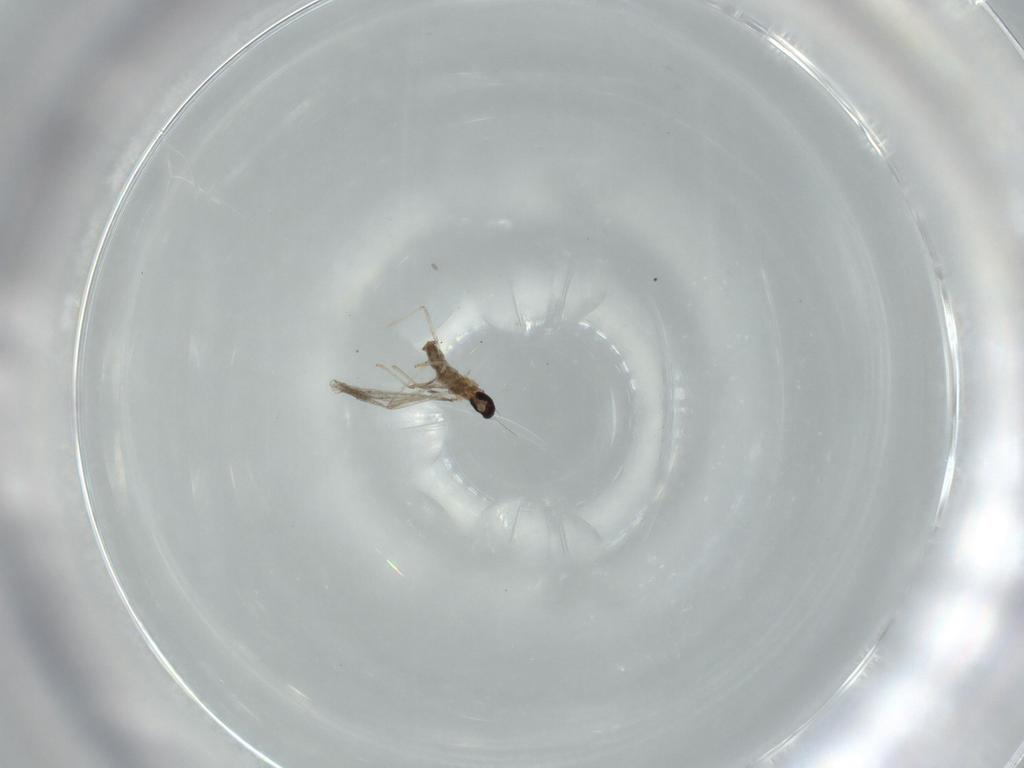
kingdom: Animalia
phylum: Arthropoda
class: Insecta
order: Diptera
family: Cecidomyiidae
